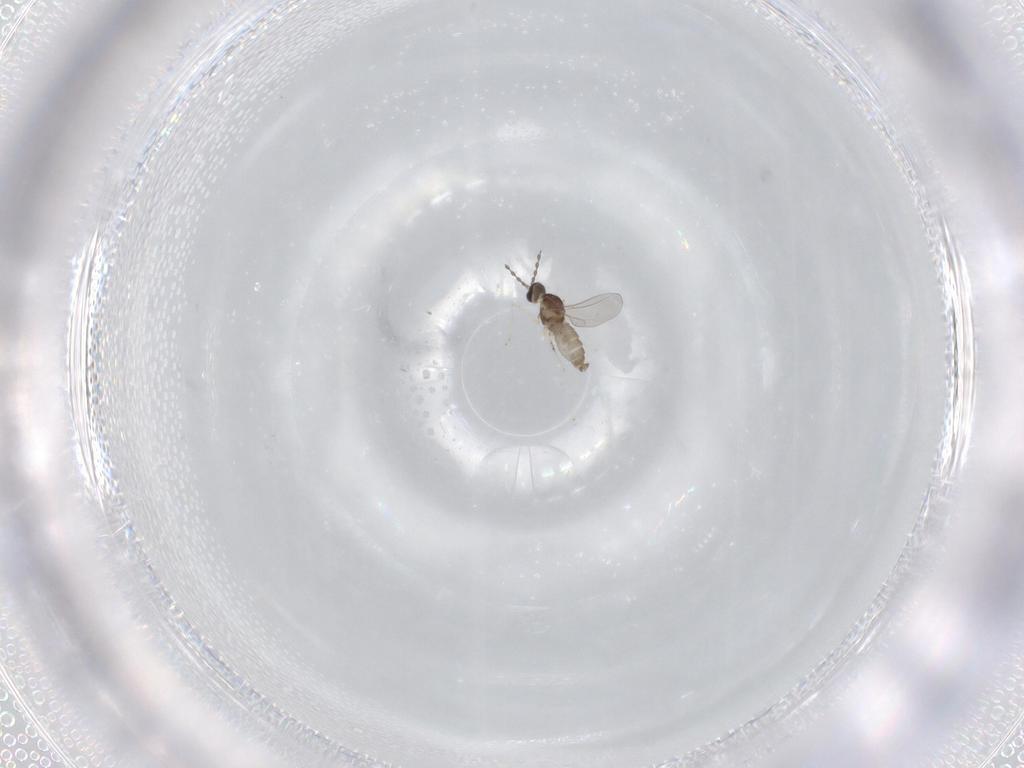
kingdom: Animalia
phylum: Arthropoda
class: Insecta
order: Diptera
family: Cecidomyiidae
